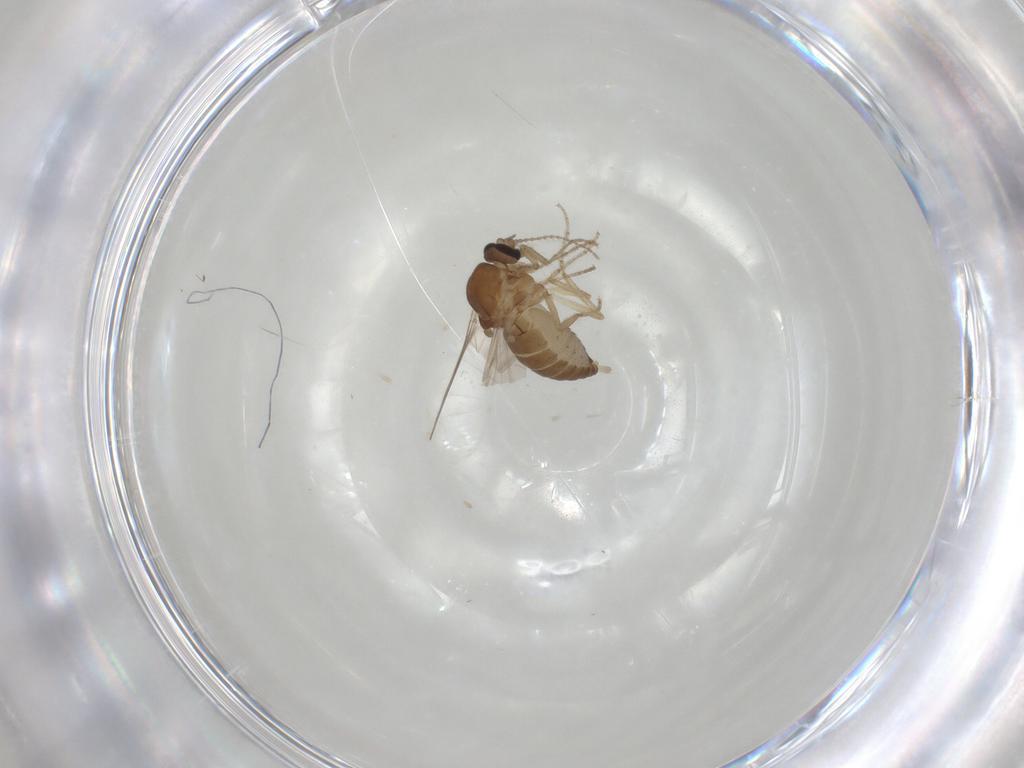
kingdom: Animalia
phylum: Arthropoda
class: Insecta
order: Diptera
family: Ceratopogonidae
